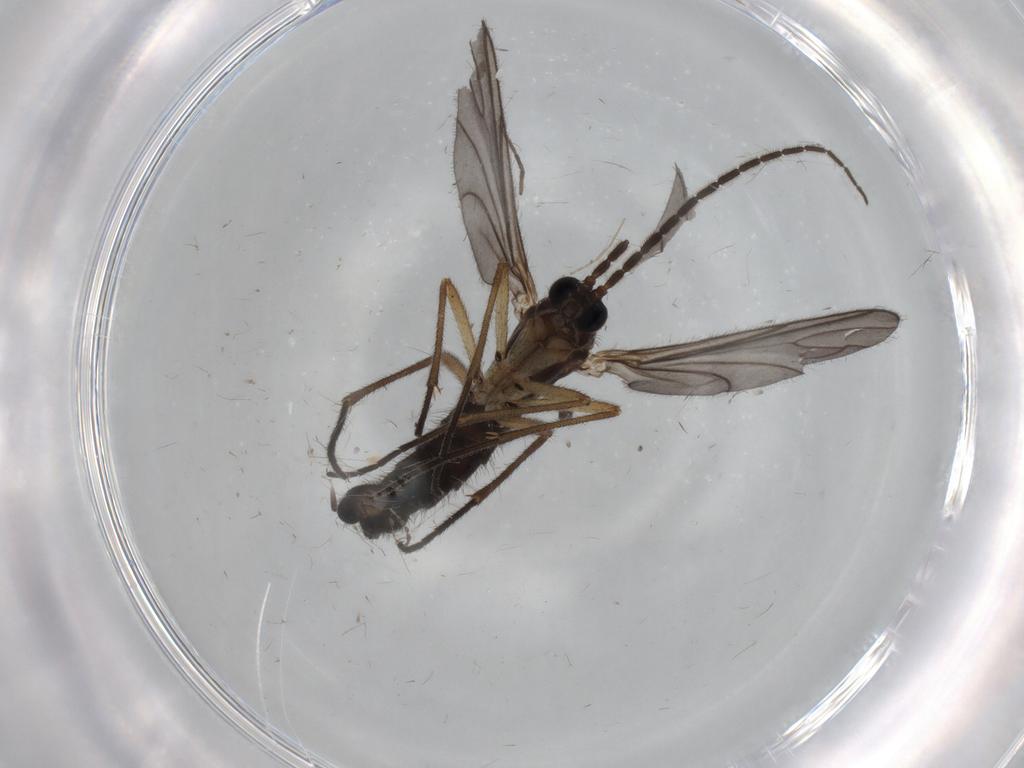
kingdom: Animalia
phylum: Arthropoda
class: Insecta
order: Diptera
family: Sciaridae
